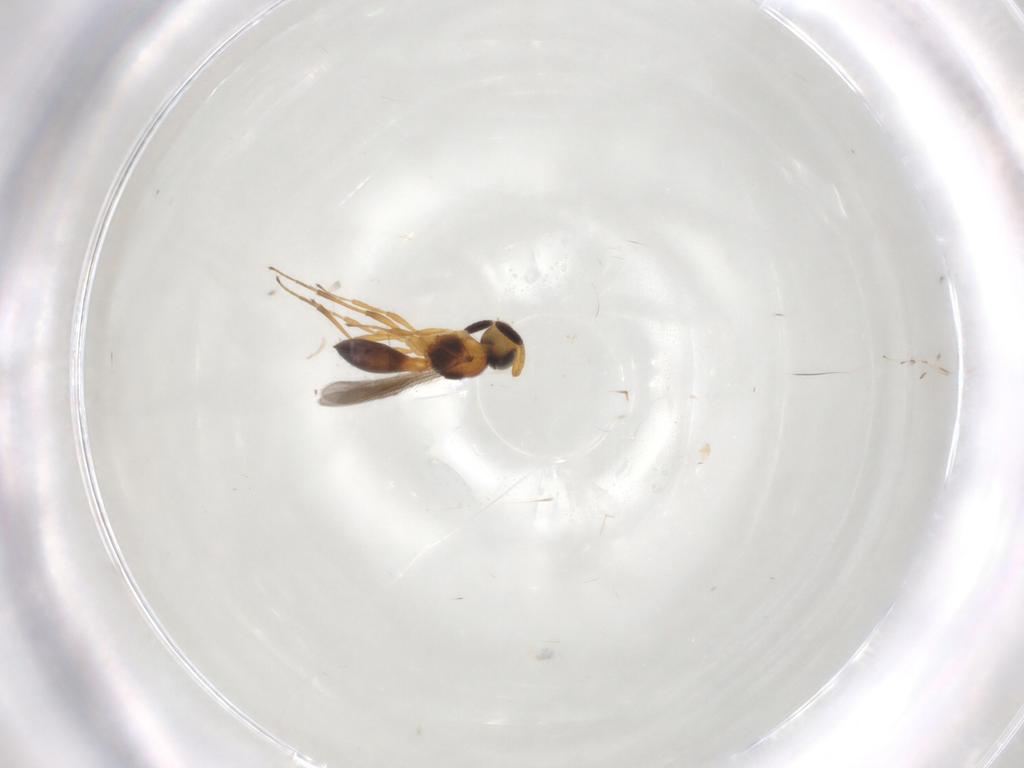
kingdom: Animalia
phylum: Arthropoda
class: Insecta
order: Hymenoptera
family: Scelionidae
